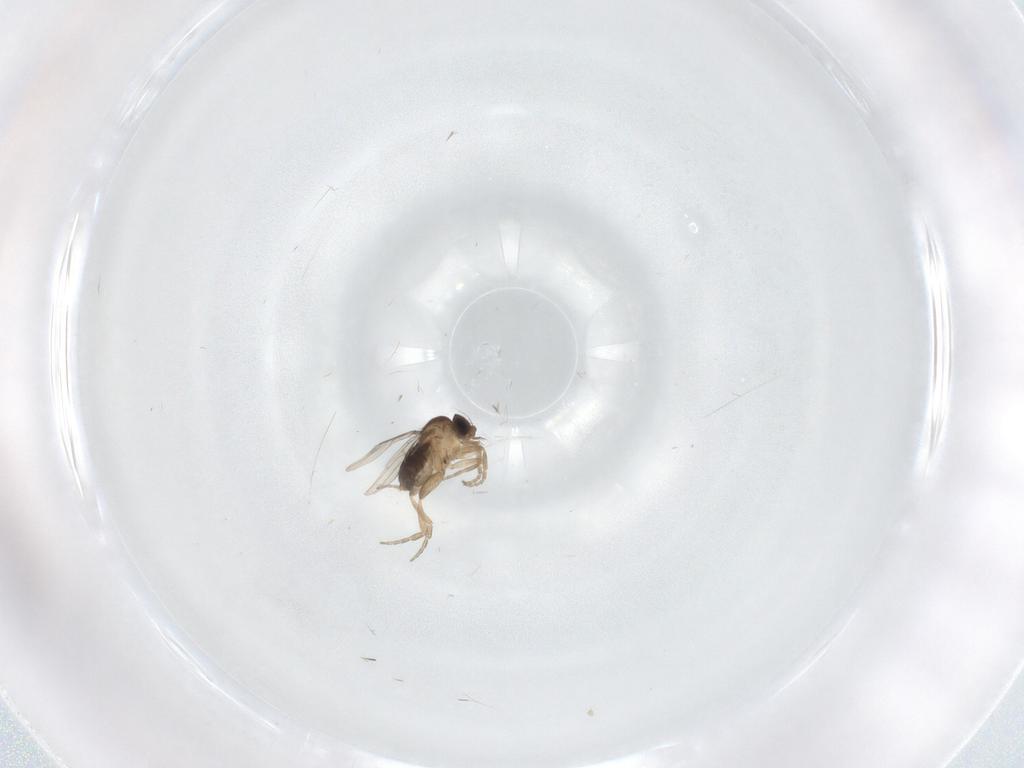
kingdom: Animalia
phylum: Arthropoda
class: Insecta
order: Diptera
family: Phoridae
